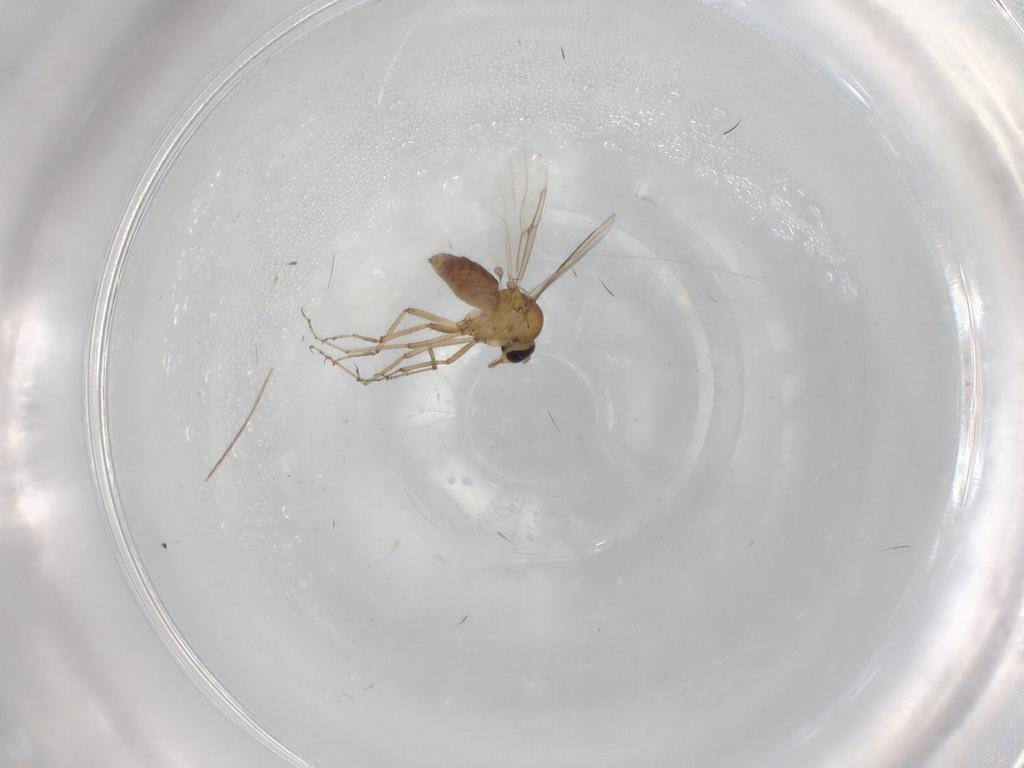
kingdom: Animalia
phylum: Arthropoda
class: Insecta
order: Diptera
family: Ceratopogonidae
